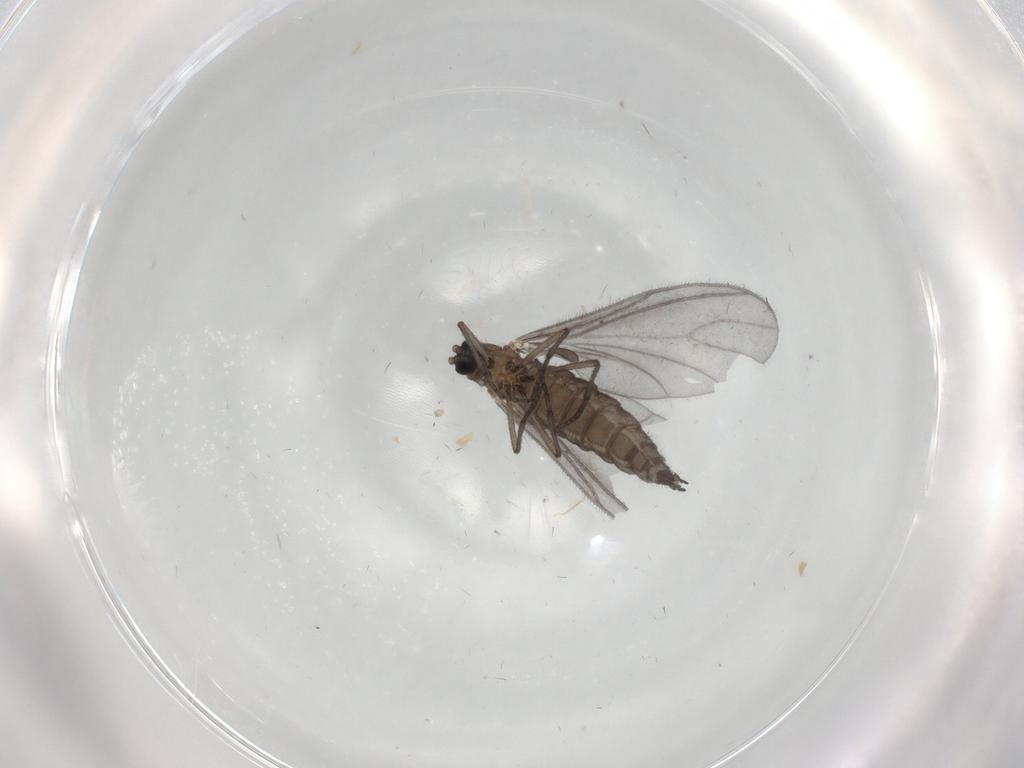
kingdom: Animalia
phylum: Arthropoda
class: Insecta
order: Diptera
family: Sciaridae
